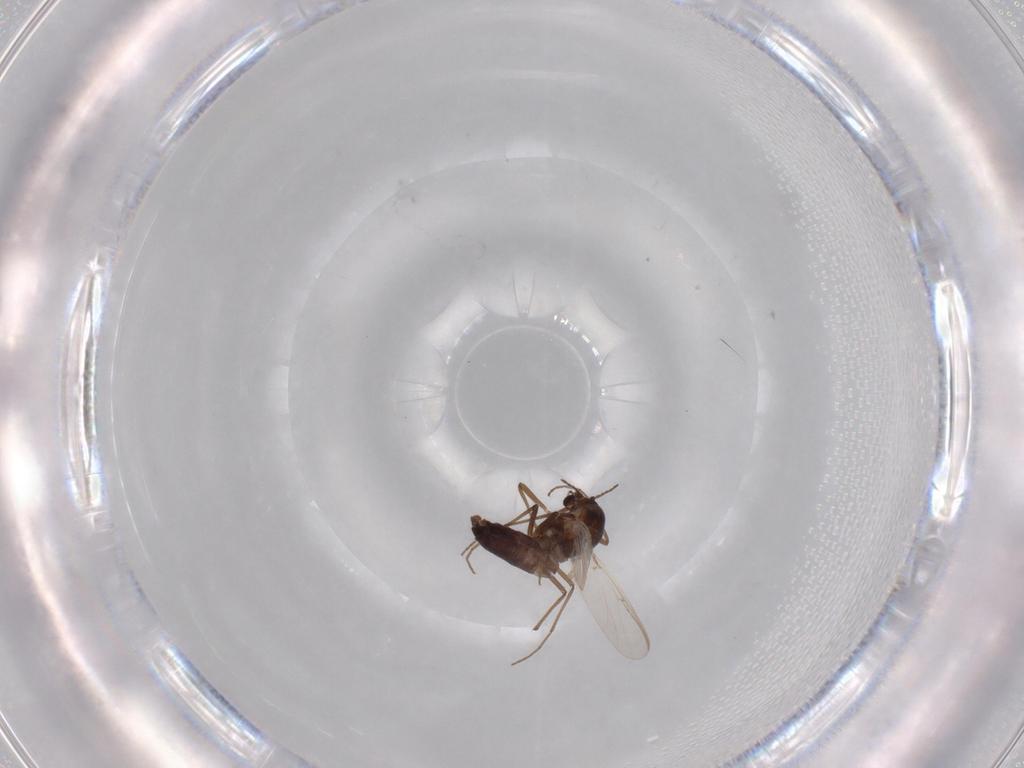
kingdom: Animalia
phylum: Arthropoda
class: Insecta
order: Diptera
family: Chironomidae
